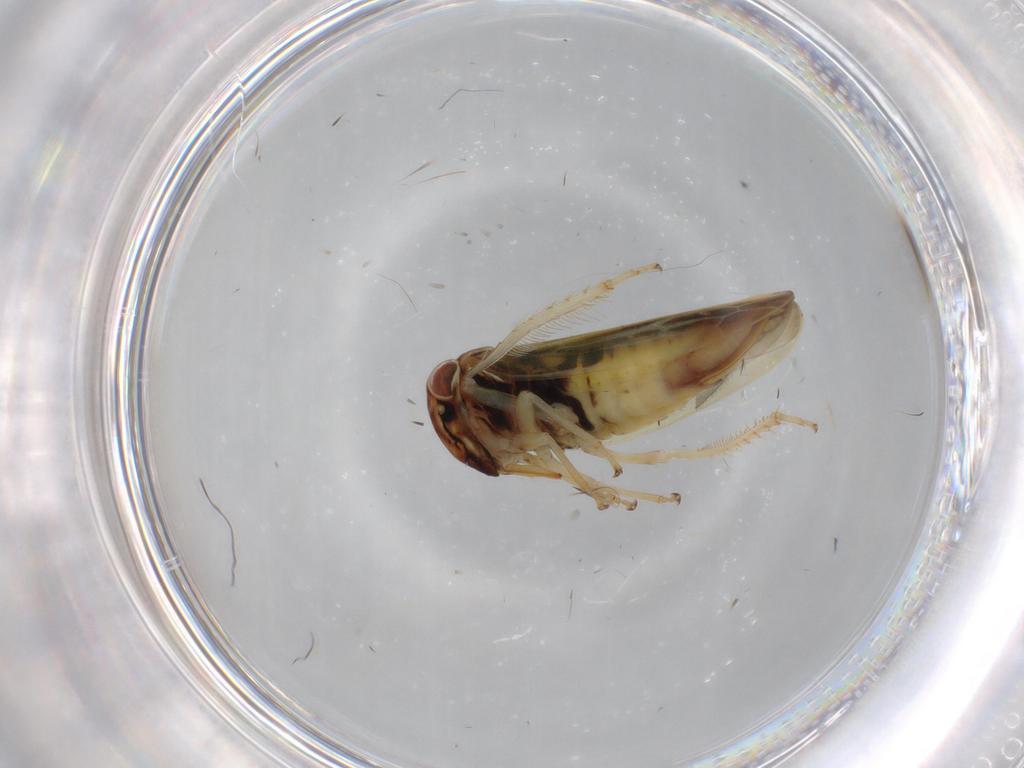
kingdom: Animalia
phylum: Arthropoda
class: Insecta
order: Hemiptera
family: Cicadellidae
